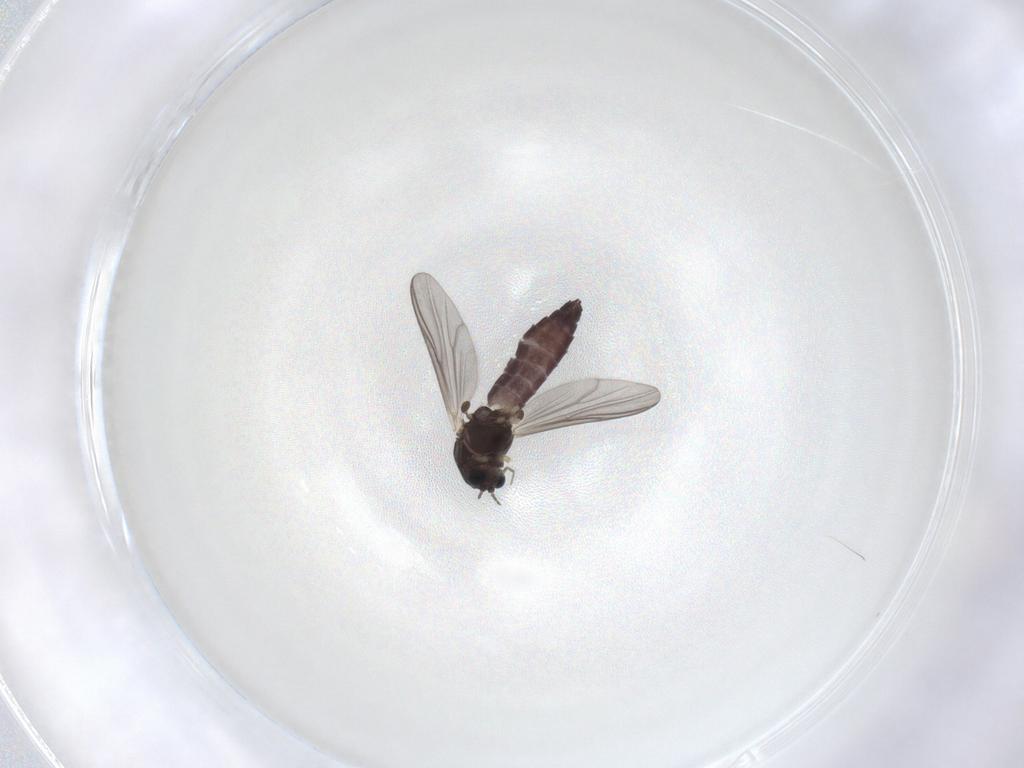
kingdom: Animalia
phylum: Arthropoda
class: Insecta
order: Diptera
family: Chironomidae
